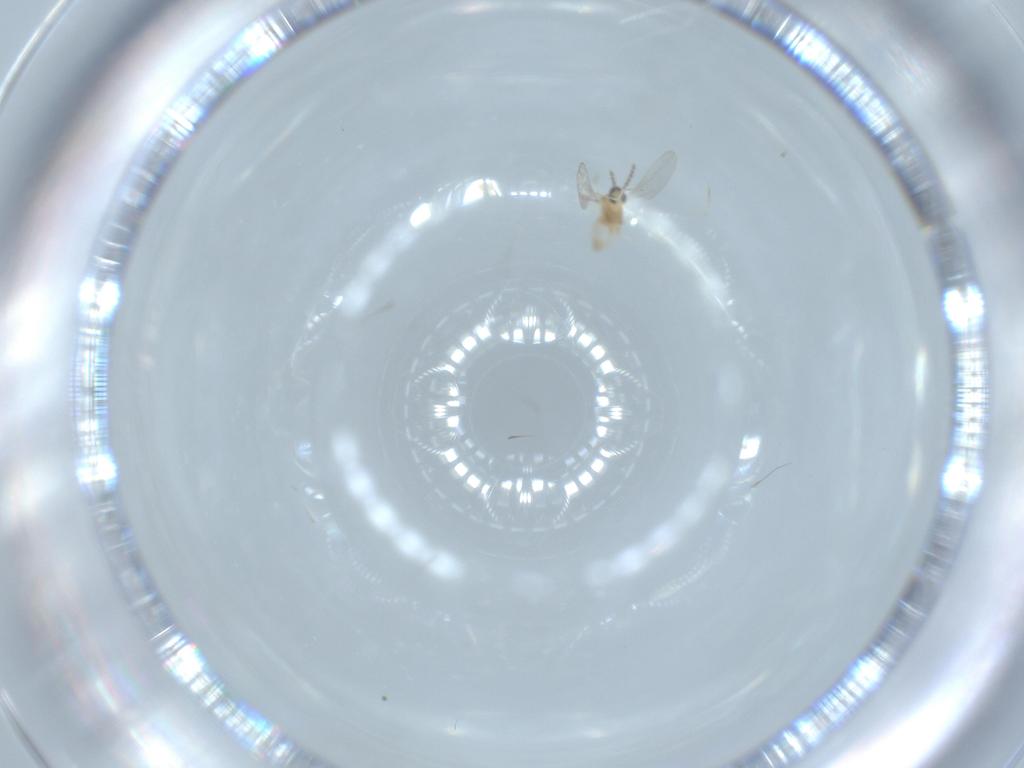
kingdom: Animalia
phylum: Arthropoda
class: Insecta
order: Diptera
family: Cecidomyiidae
